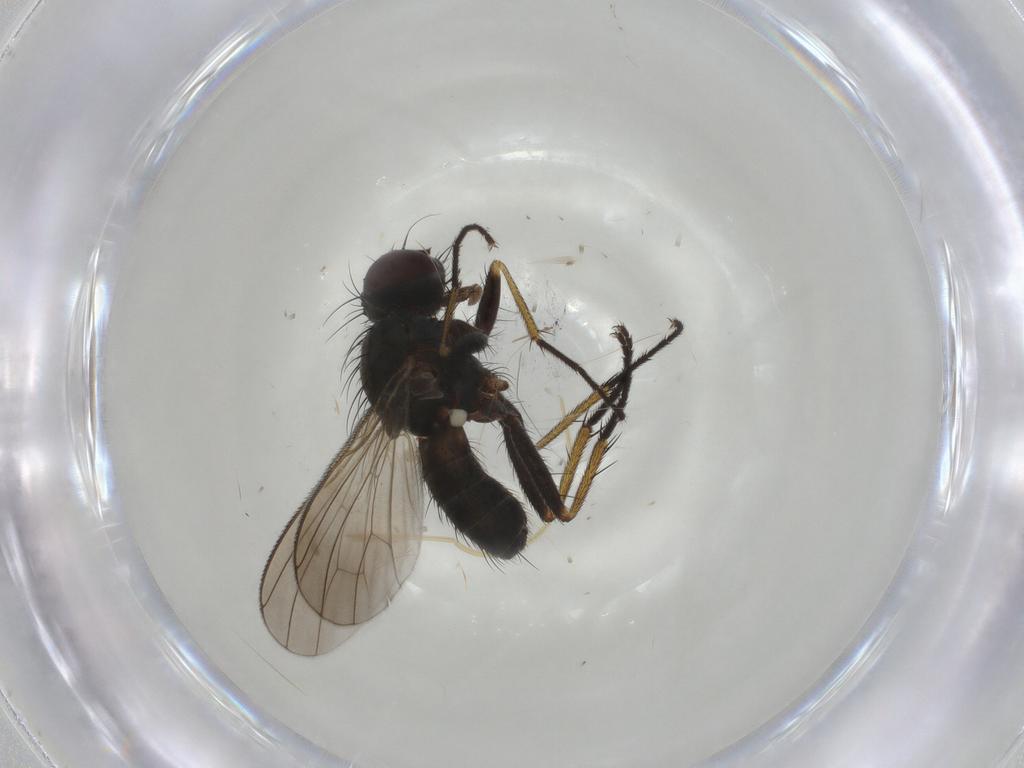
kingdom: Animalia
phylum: Arthropoda
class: Insecta
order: Diptera
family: Muscidae
